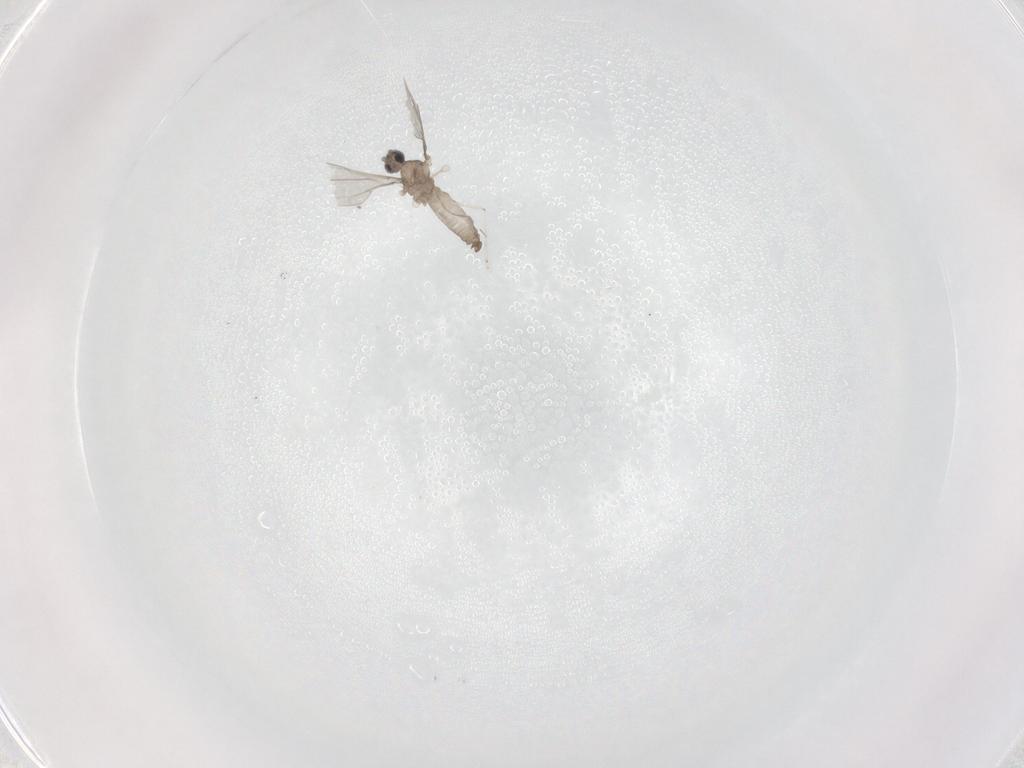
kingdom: Animalia
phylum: Arthropoda
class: Insecta
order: Diptera
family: Cecidomyiidae
